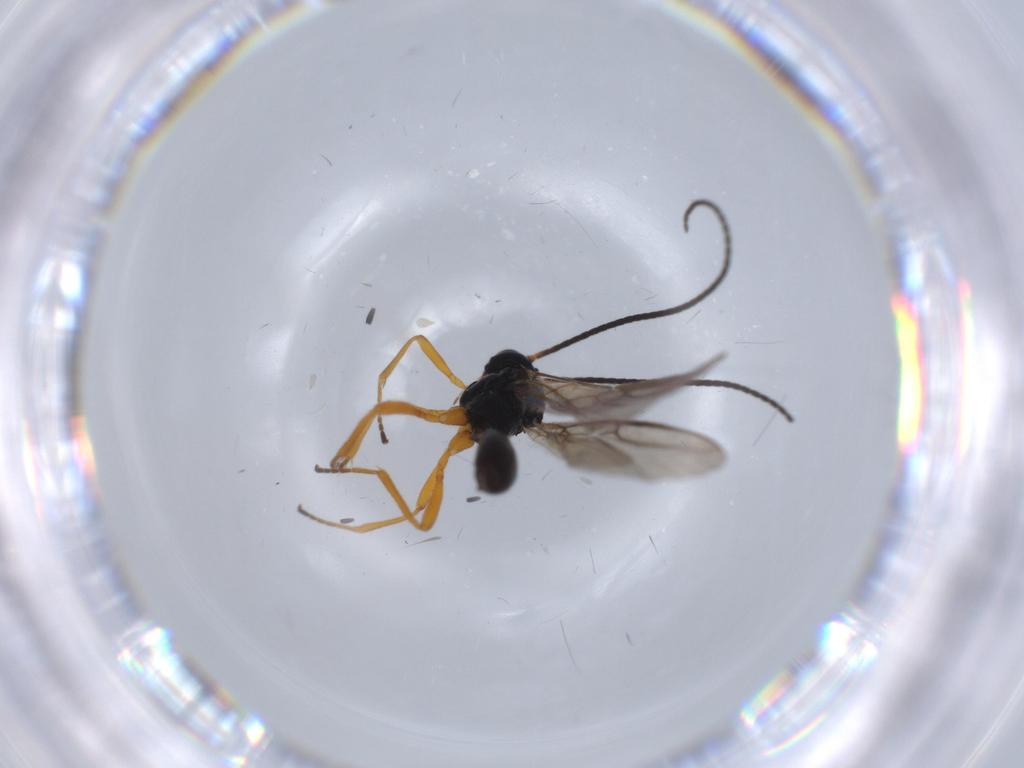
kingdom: Animalia
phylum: Arthropoda
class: Insecta
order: Hymenoptera
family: Braconidae
